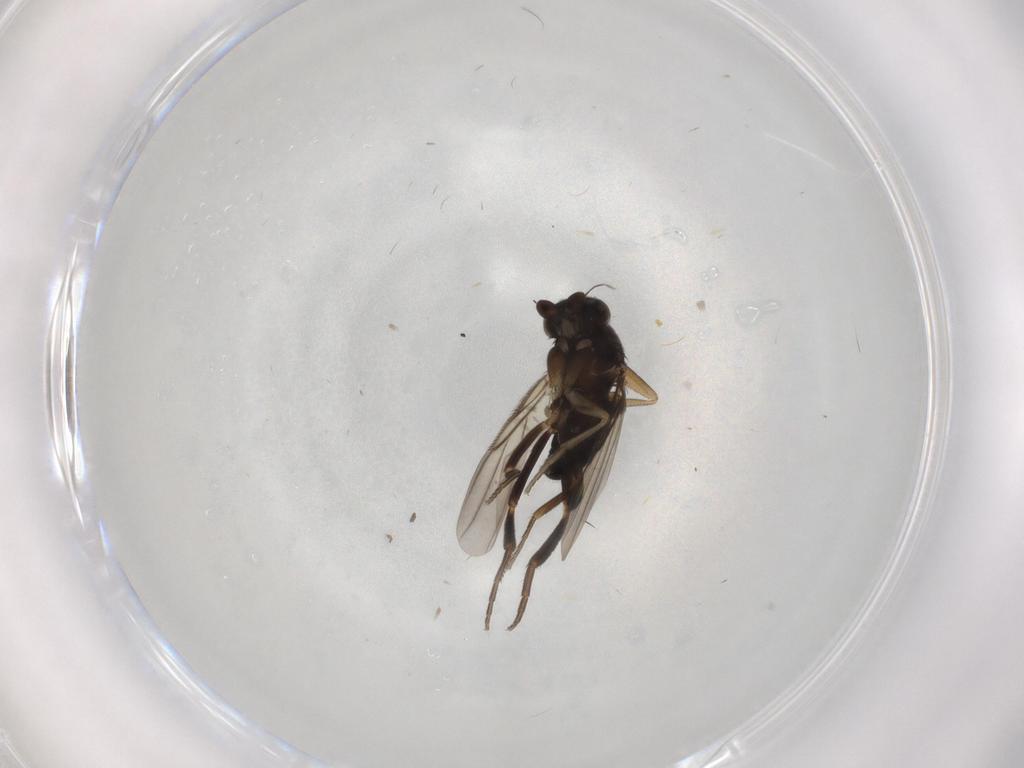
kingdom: Animalia
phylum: Arthropoda
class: Insecta
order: Diptera
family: Phoridae
